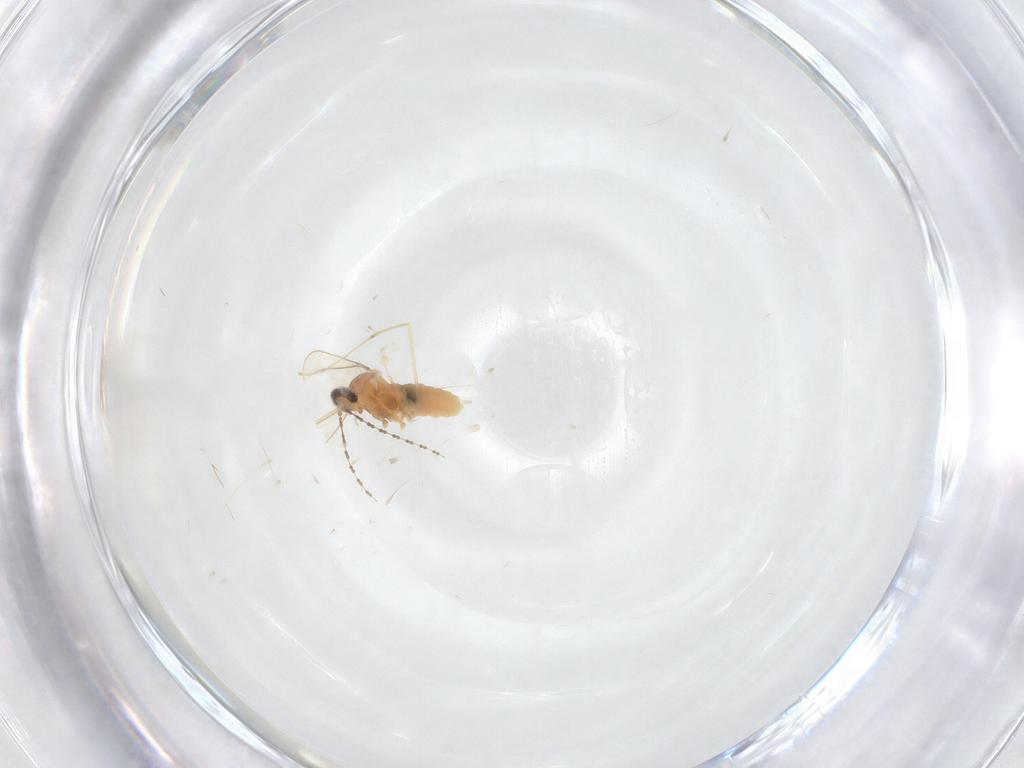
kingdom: Animalia
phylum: Arthropoda
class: Insecta
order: Diptera
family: Cecidomyiidae
